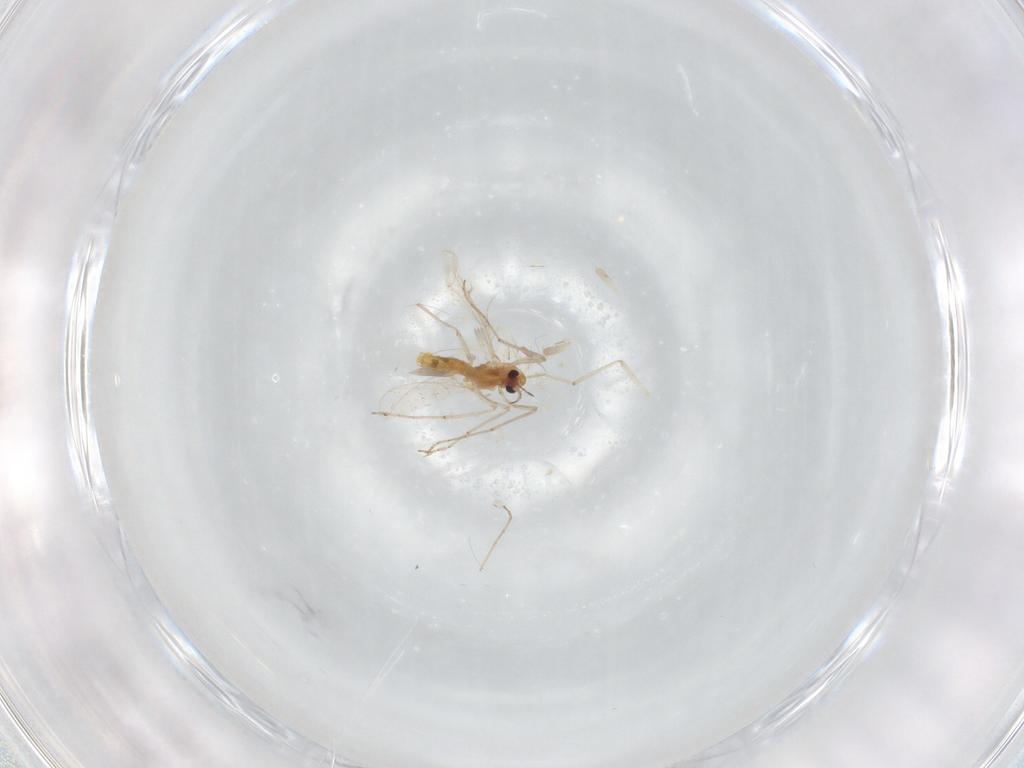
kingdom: Animalia
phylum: Arthropoda
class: Insecta
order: Diptera
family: Chironomidae
